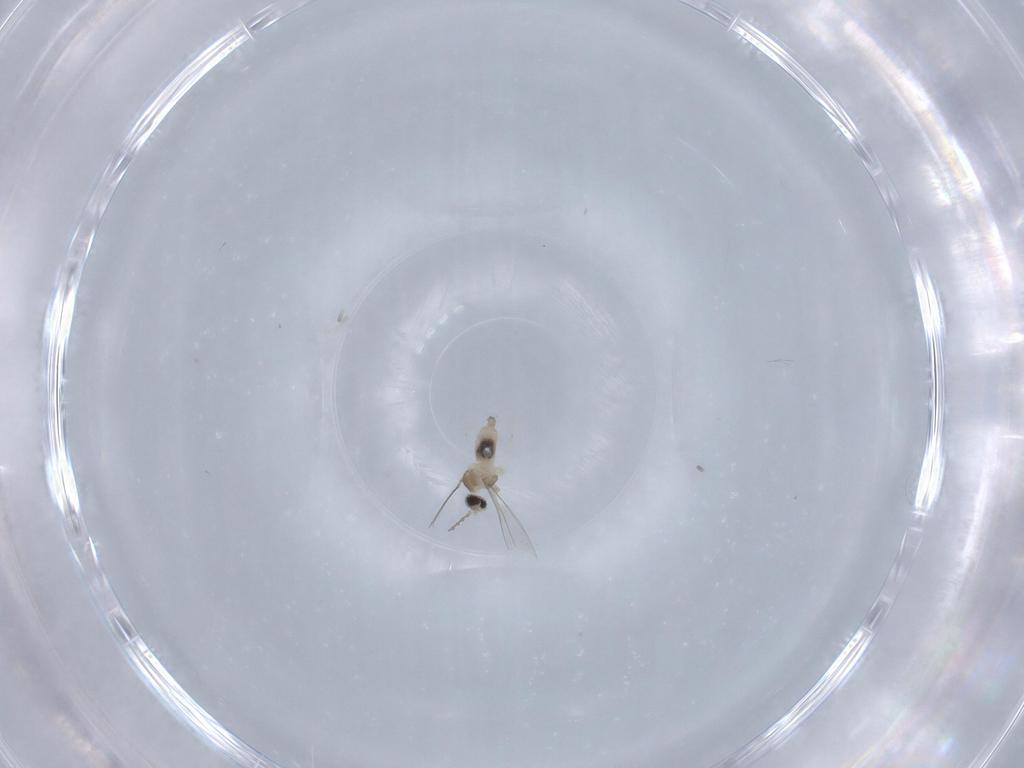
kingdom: Animalia
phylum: Arthropoda
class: Insecta
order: Diptera
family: Cecidomyiidae
